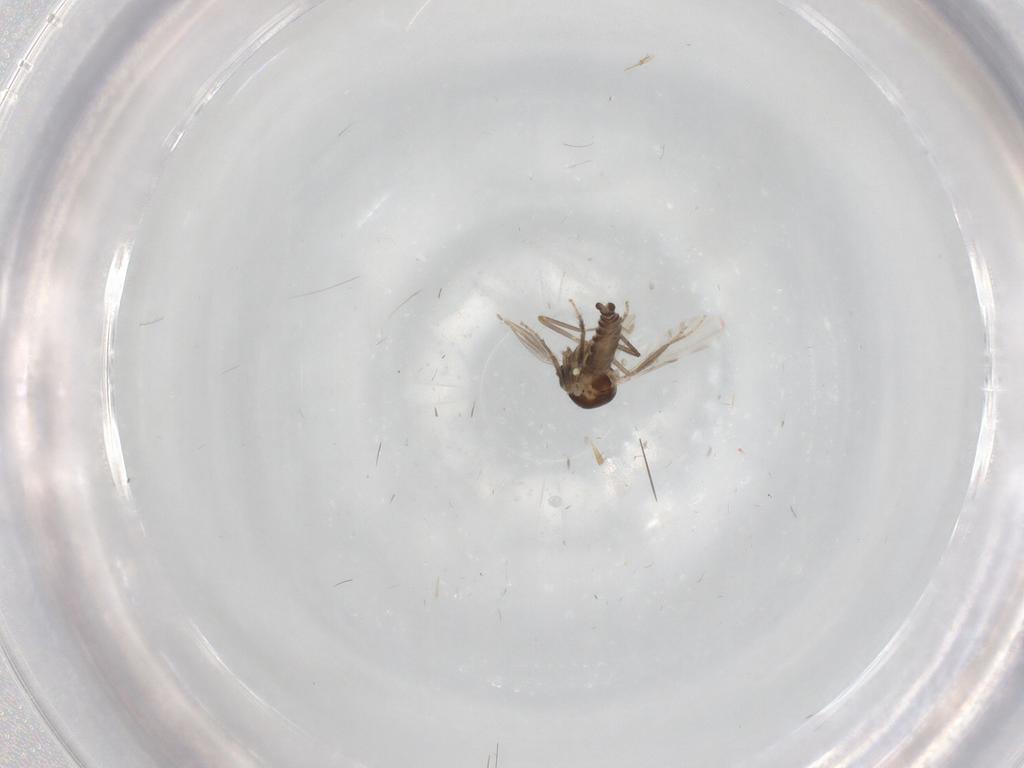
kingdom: Animalia
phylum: Arthropoda
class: Insecta
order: Diptera
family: Ceratopogonidae
